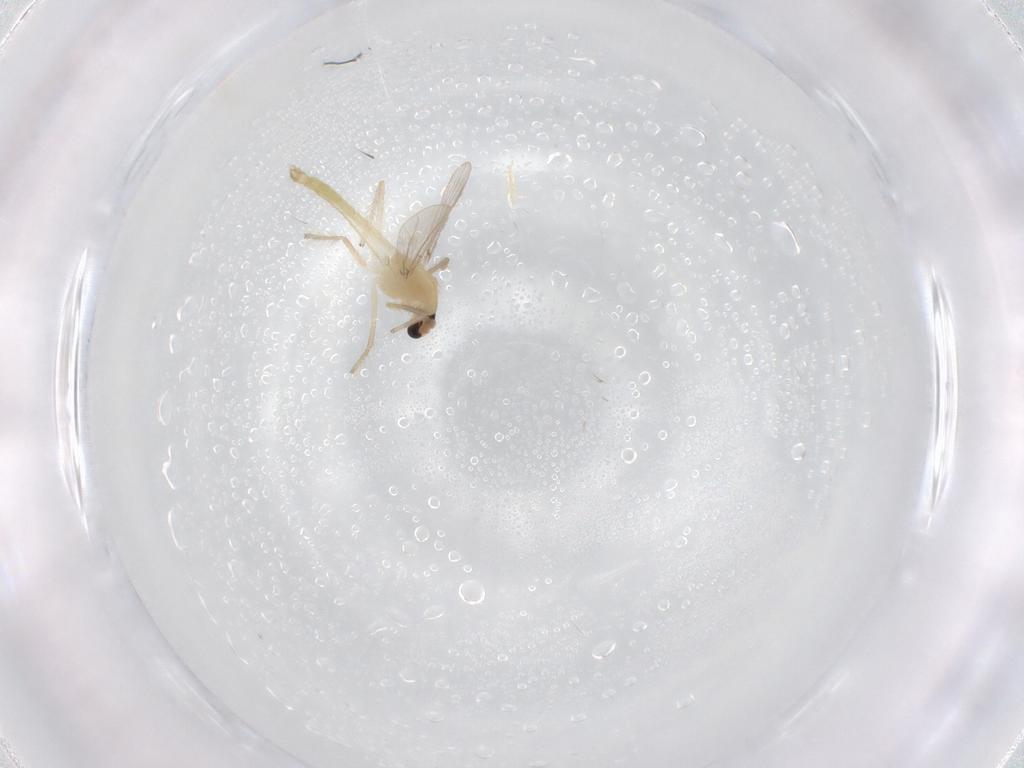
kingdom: Animalia
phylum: Arthropoda
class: Insecta
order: Diptera
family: Chironomidae
